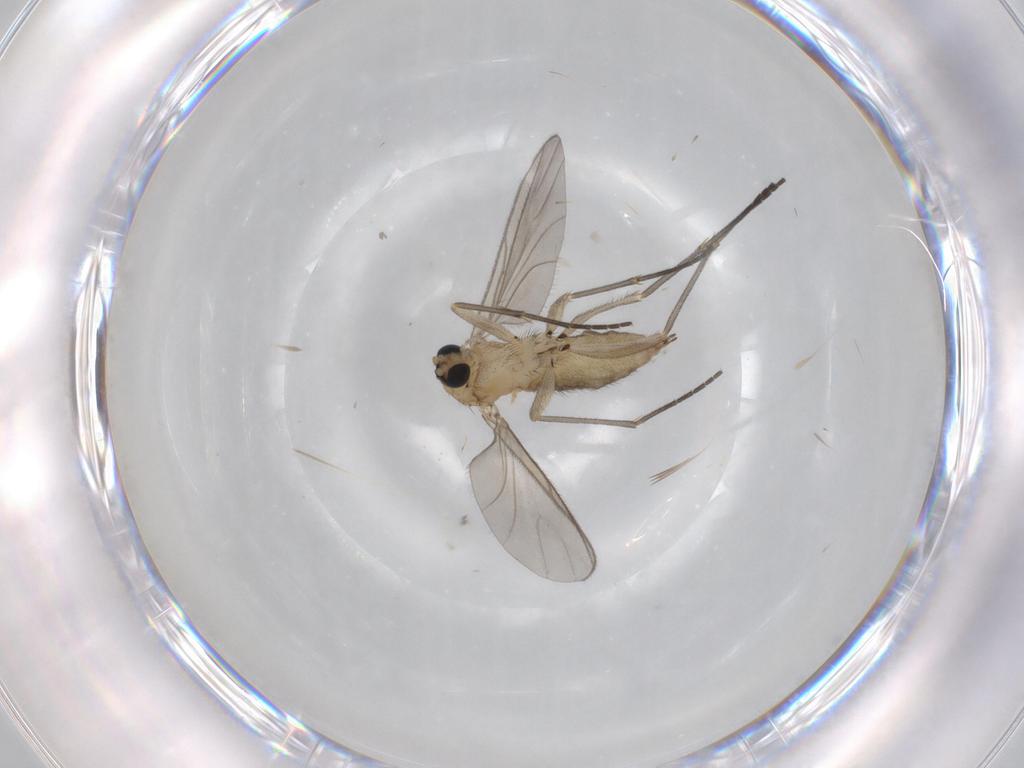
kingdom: Animalia
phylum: Arthropoda
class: Insecta
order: Diptera
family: Sciaridae
